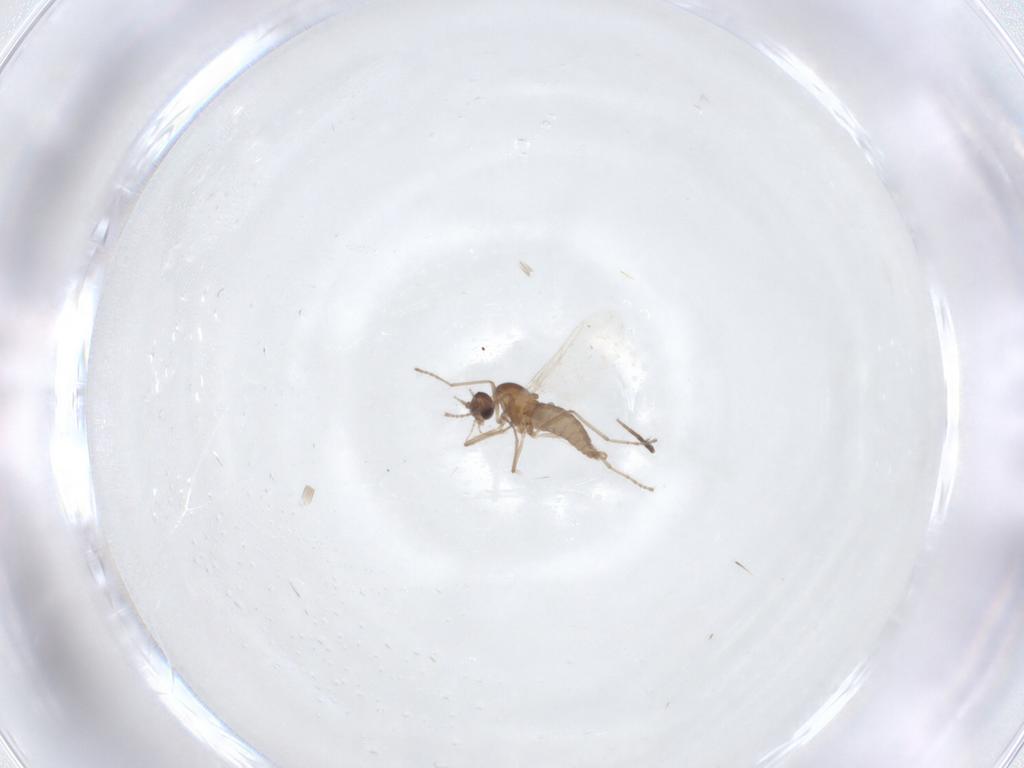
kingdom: Animalia
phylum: Arthropoda
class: Insecta
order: Diptera
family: Cecidomyiidae
